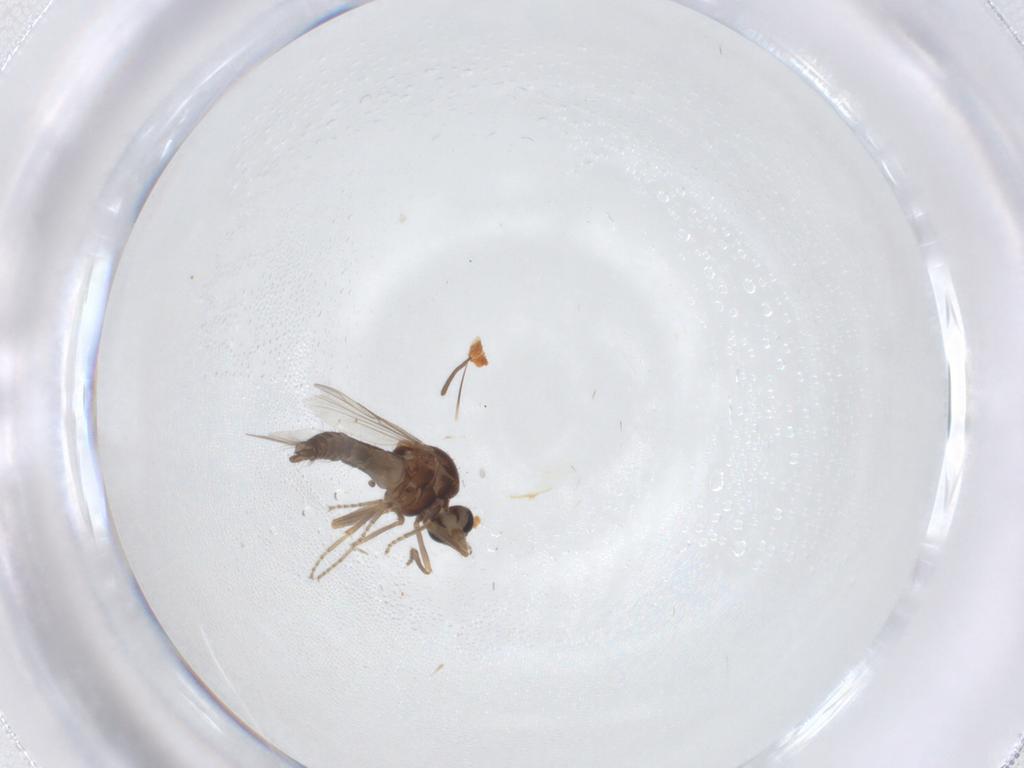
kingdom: Animalia
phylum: Arthropoda
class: Insecta
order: Diptera
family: Ceratopogonidae
